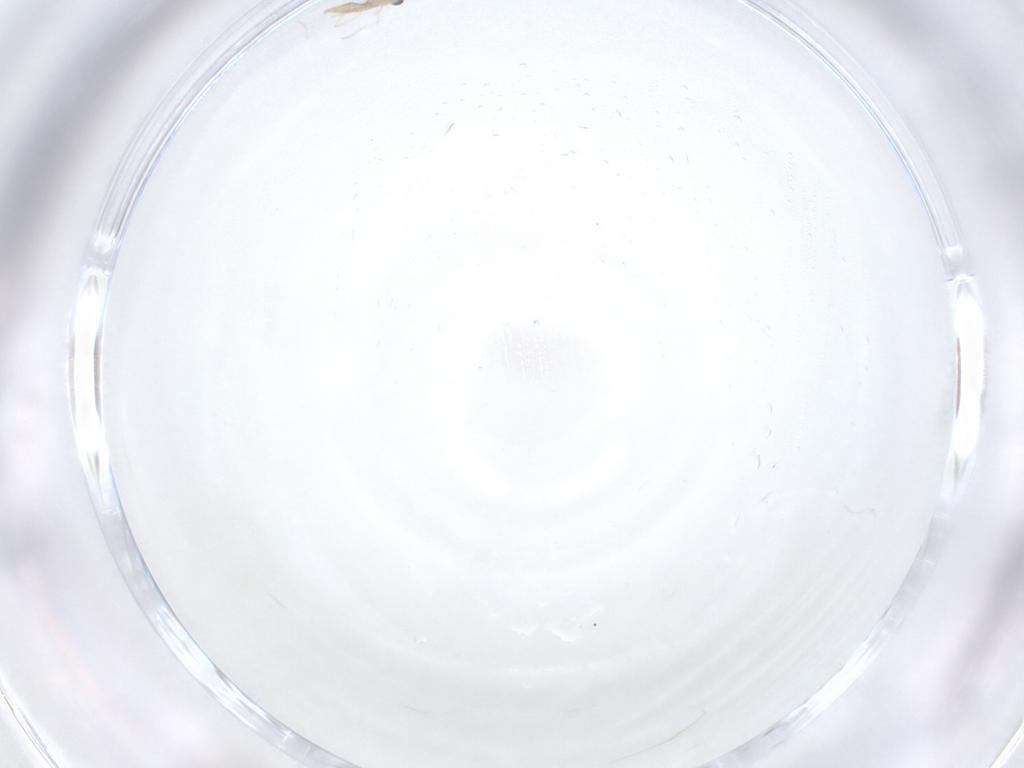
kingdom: Animalia
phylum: Arthropoda
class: Insecta
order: Diptera
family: Cecidomyiidae
